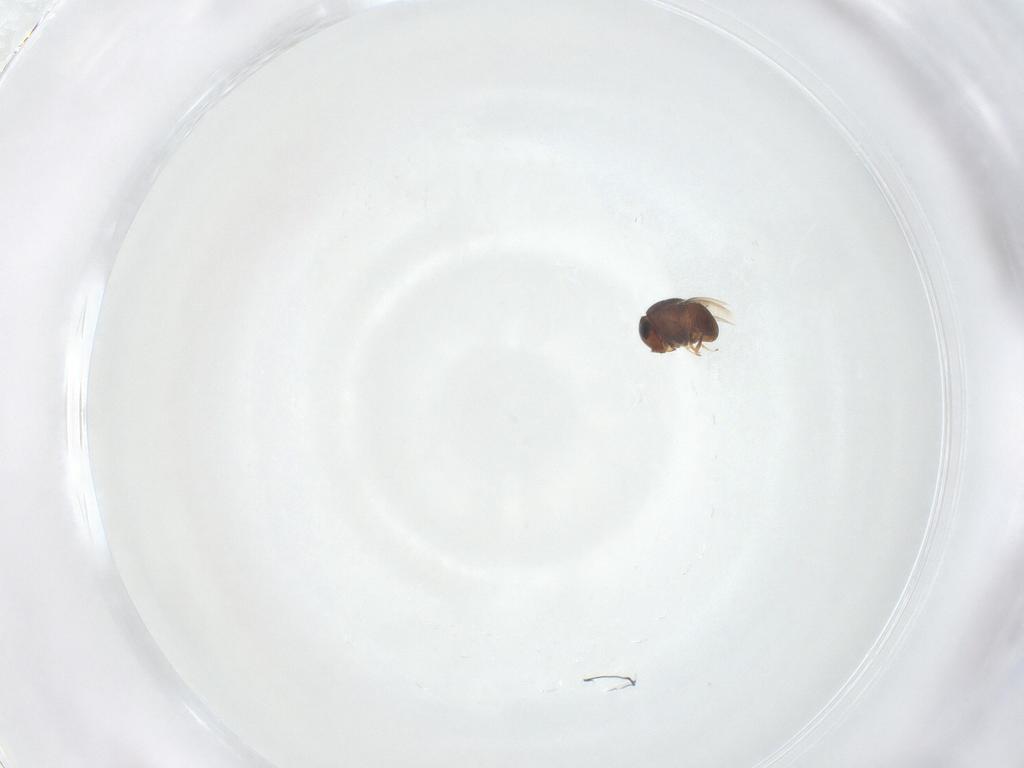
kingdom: Animalia
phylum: Arthropoda
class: Insecta
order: Hymenoptera
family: Scelionidae
